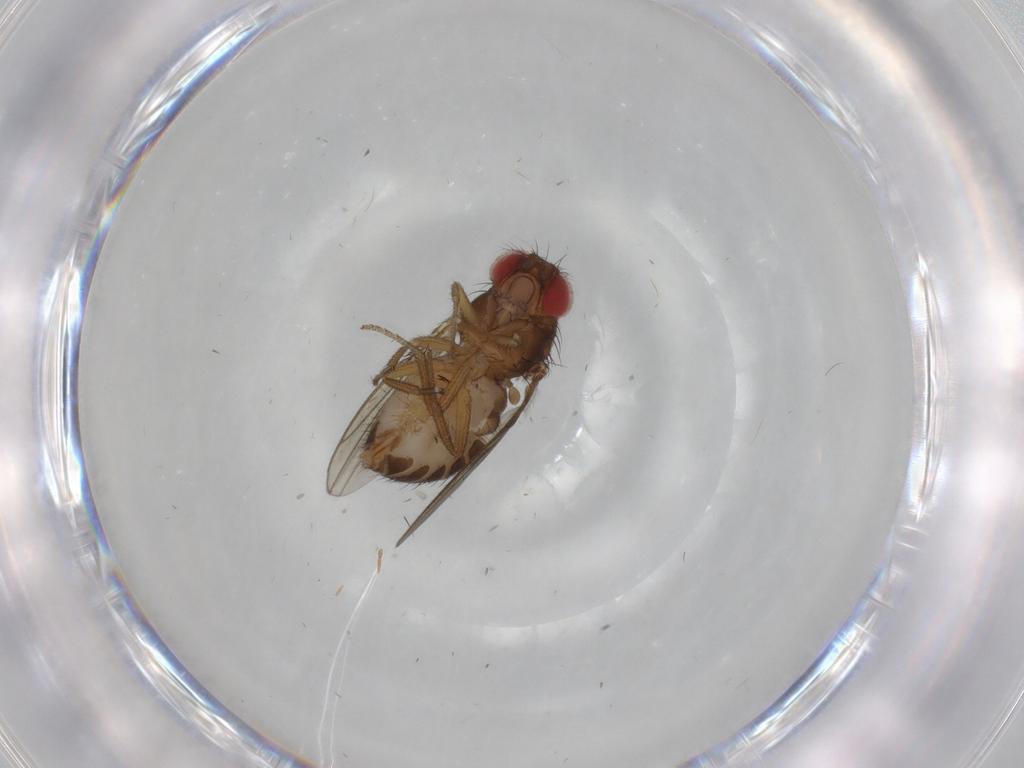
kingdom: Animalia
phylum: Arthropoda
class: Insecta
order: Diptera
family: Drosophilidae
